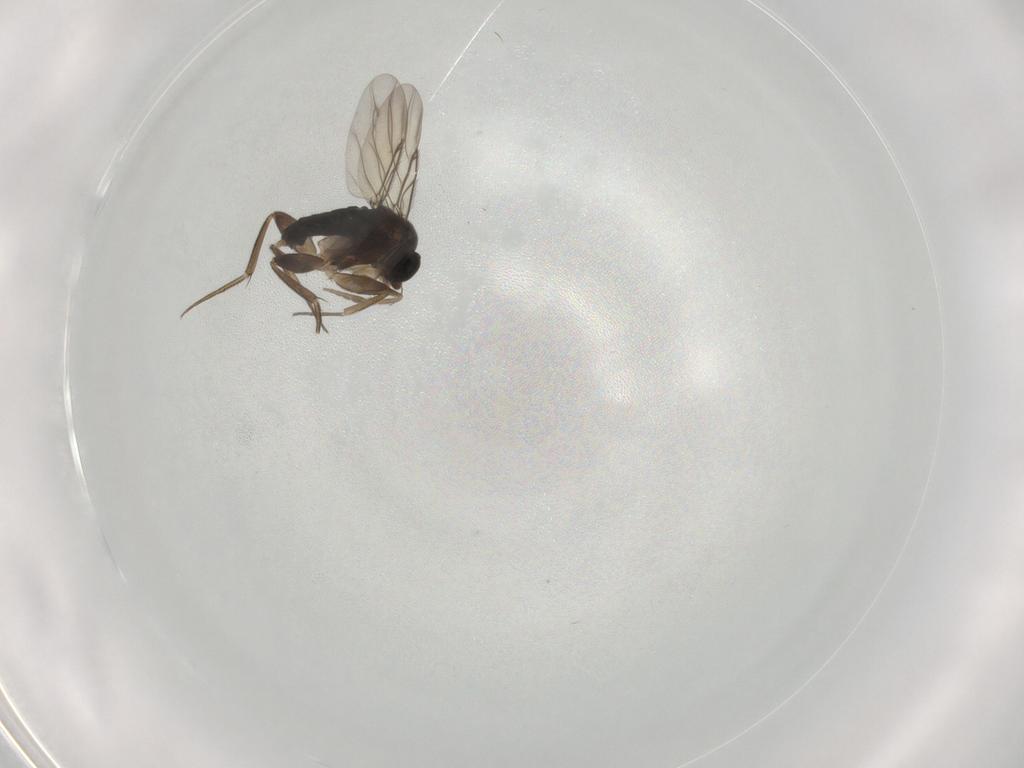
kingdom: Animalia
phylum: Arthropoda
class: Insecta
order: Diptera
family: Phoridae
